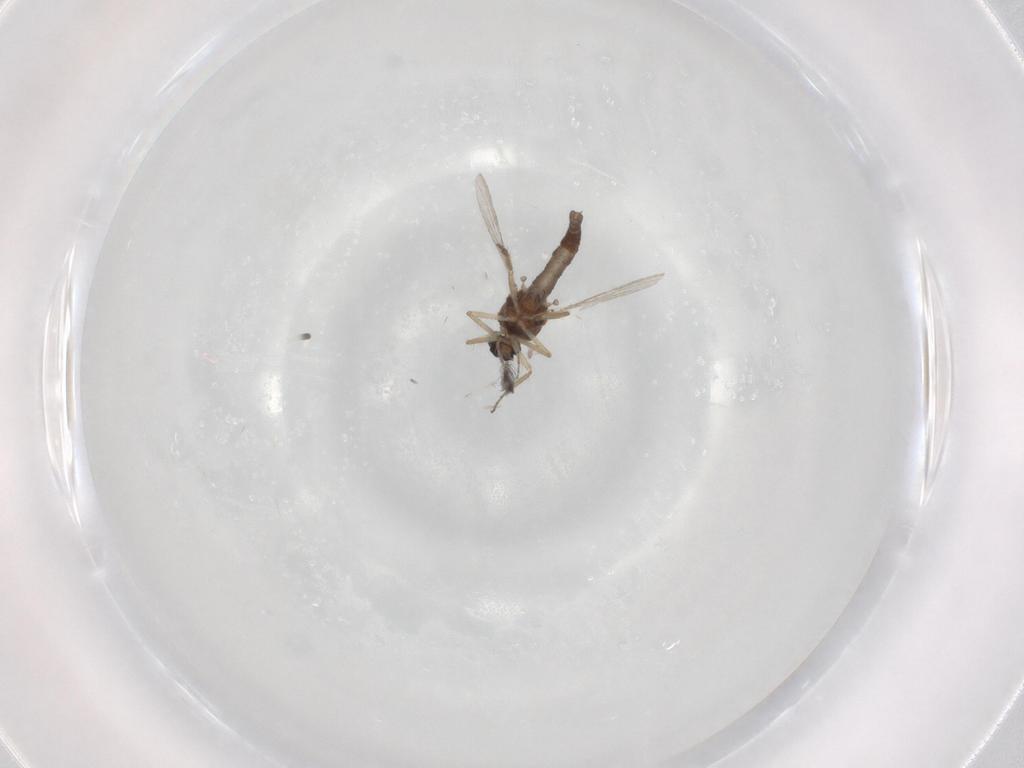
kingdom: Animalia
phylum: Arthropoda
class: Insecta
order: Diptera
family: Ceratopogonidae
